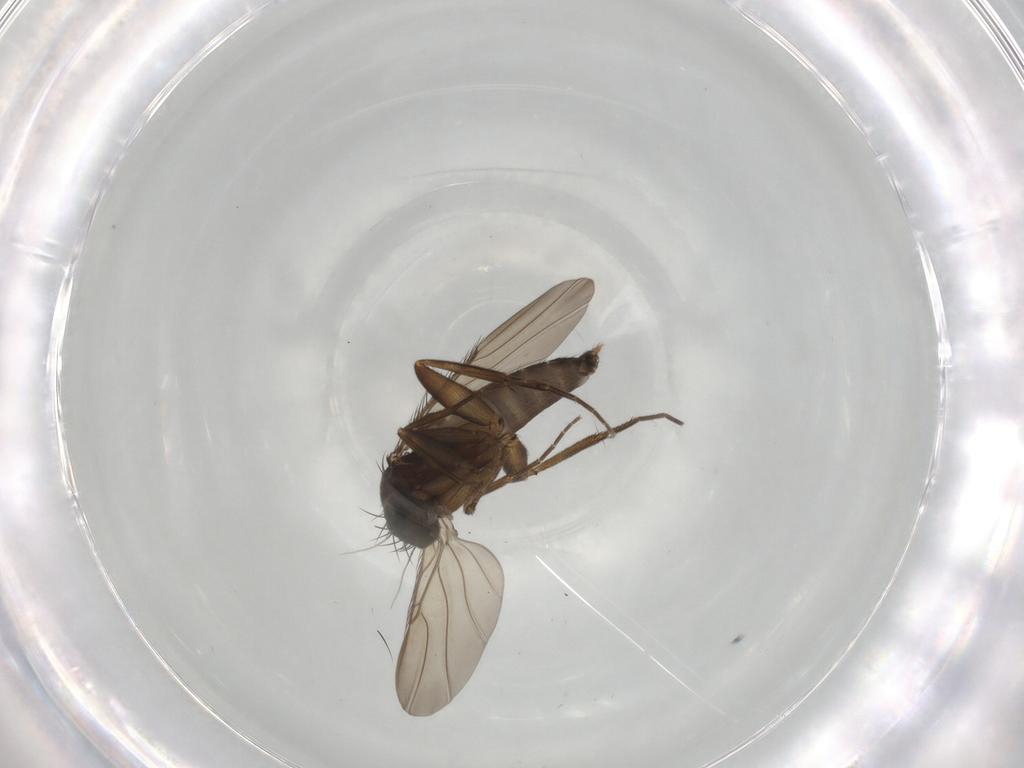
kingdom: Animalia
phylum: Arthropoda
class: Insecta
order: Diptera
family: Phoridae
